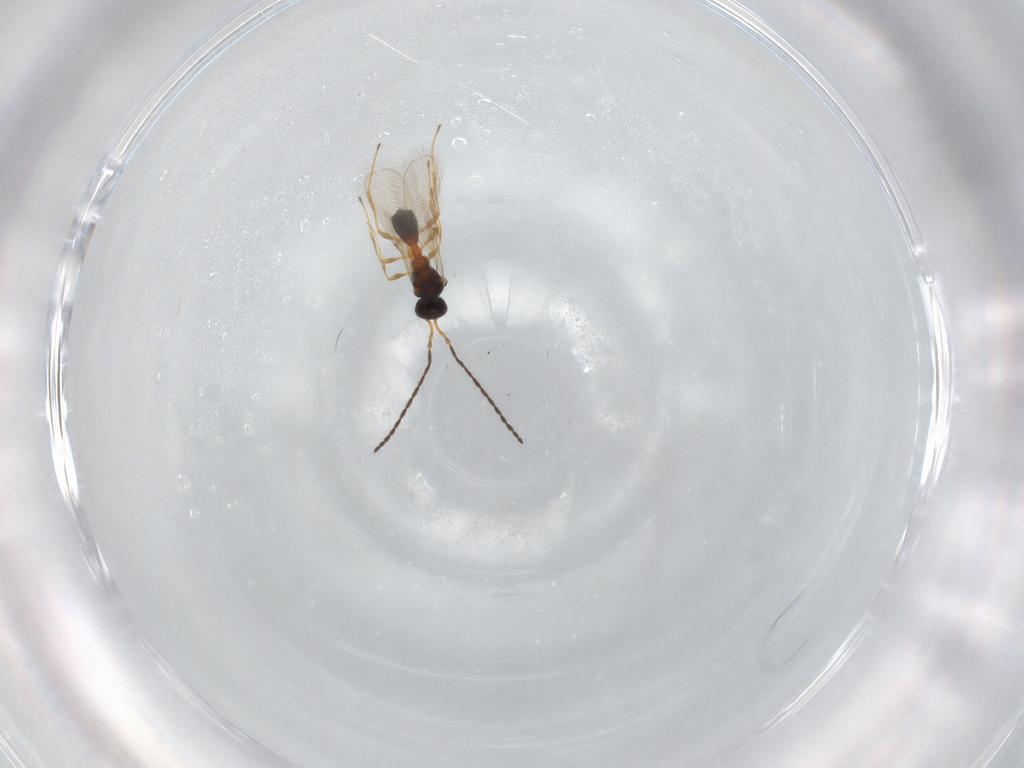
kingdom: Animalia
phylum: Arthropoda
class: Insecta
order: Hymenoptera
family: Diapriidae
